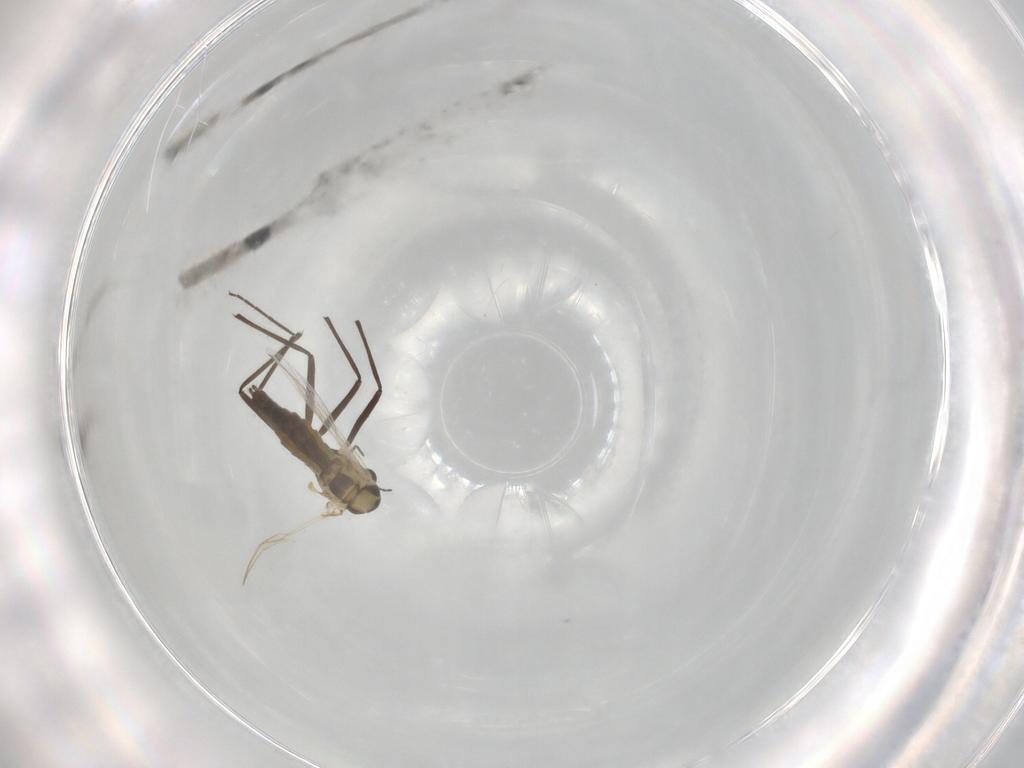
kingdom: Animalia
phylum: Arthropoda
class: Insecta
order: Diptera
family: Chironomidae
